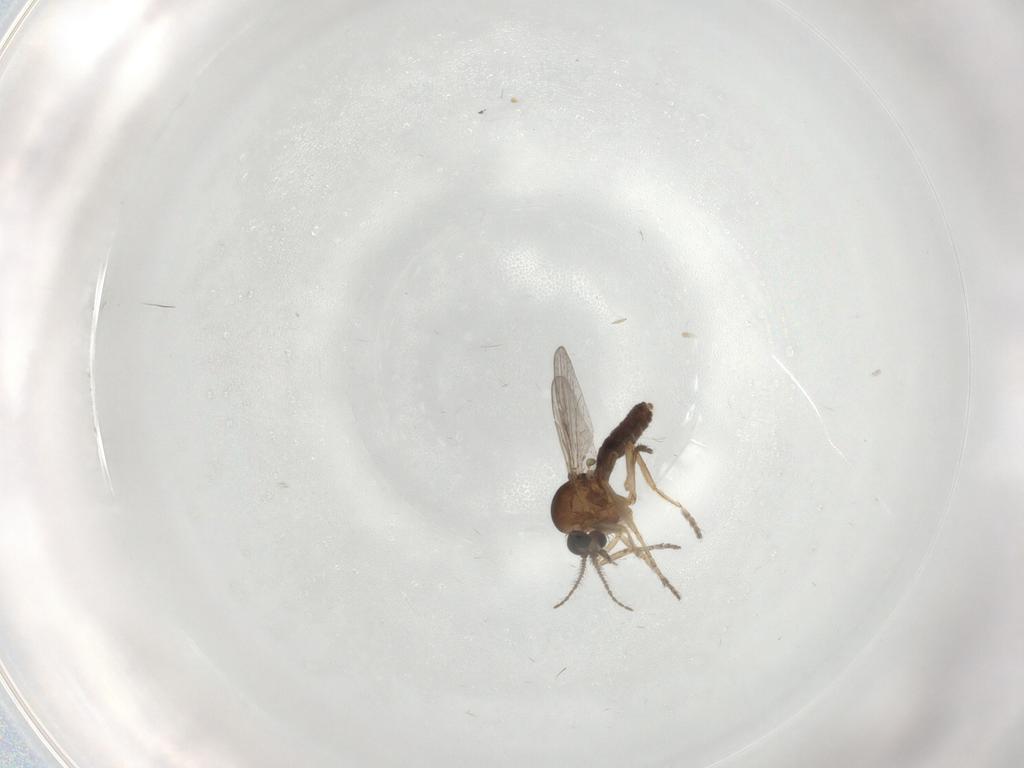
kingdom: Animalia
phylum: Arthropoda
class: Insecta
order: Diptera
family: Ceratopogonidae
